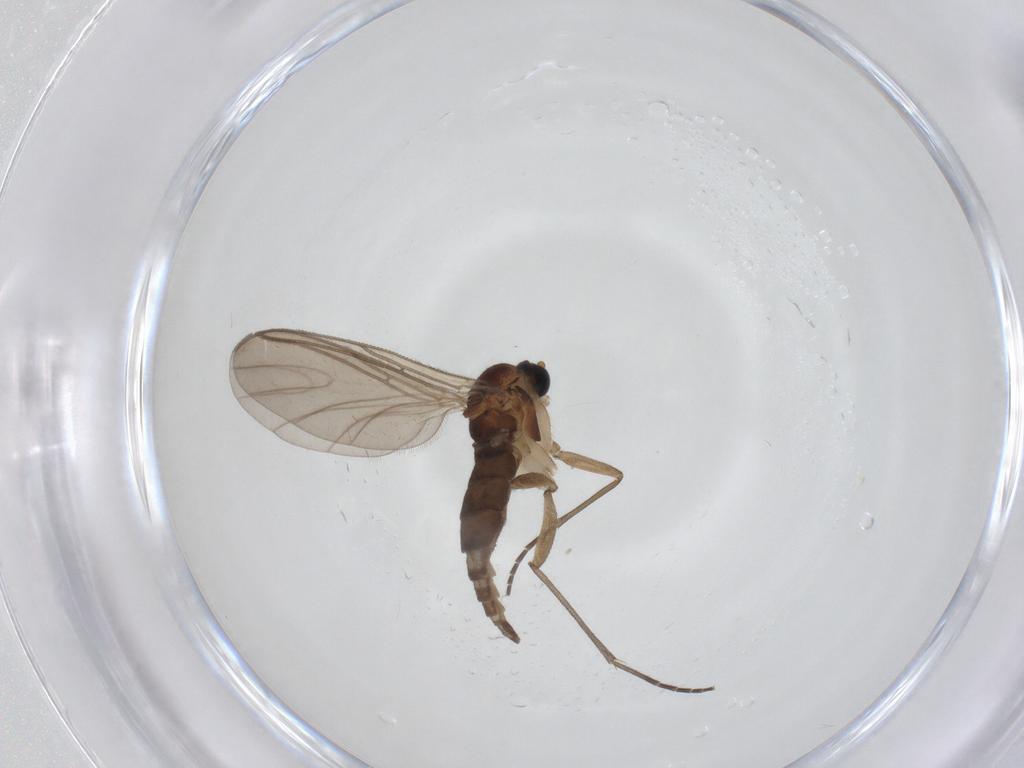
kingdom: Animalia
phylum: Arthropoda
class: Insecta
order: Diptera
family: Sciaridae
